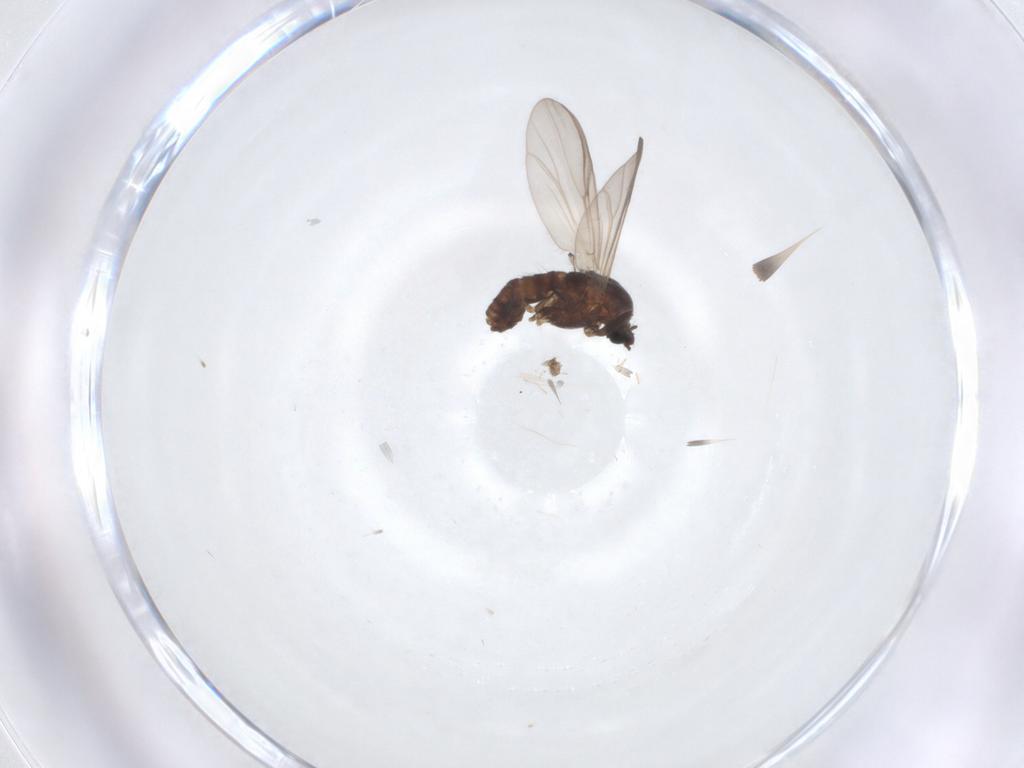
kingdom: Animalia
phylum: Arthropoda
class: Insecta
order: Diptera
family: Chironomidae
